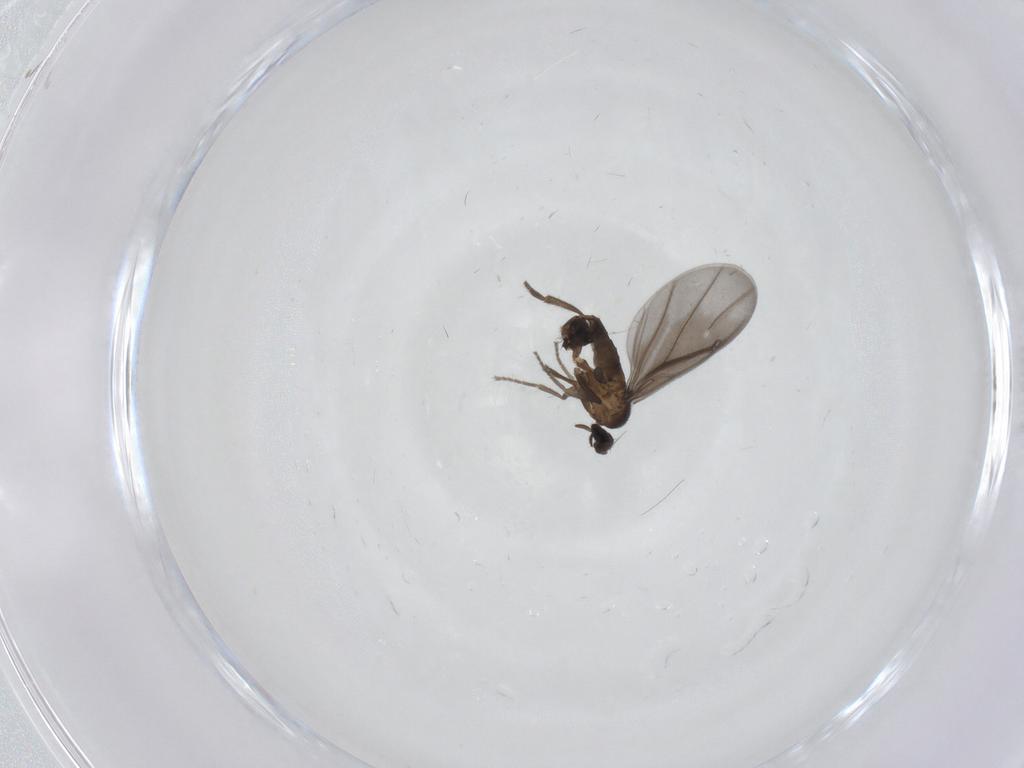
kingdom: Animalia
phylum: Arthropoda
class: Insecta
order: Diptera
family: Phoridae
